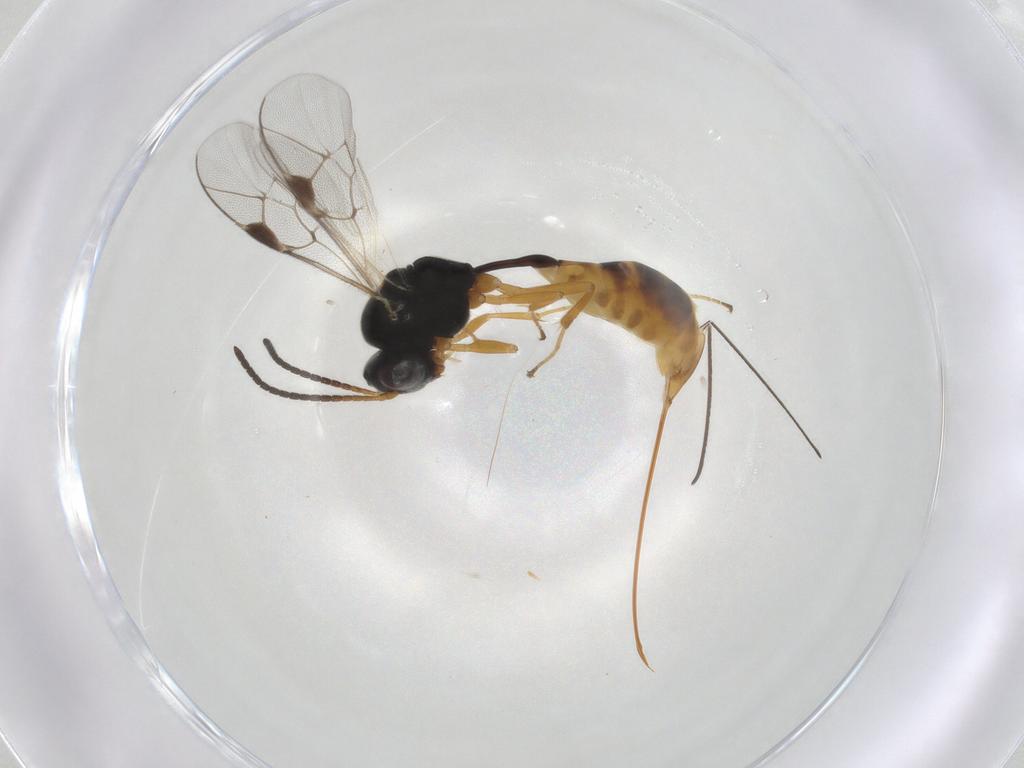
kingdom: Animalia
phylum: Arthropoda
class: Insecta
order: Hymenoptera
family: Ichneumonidae
